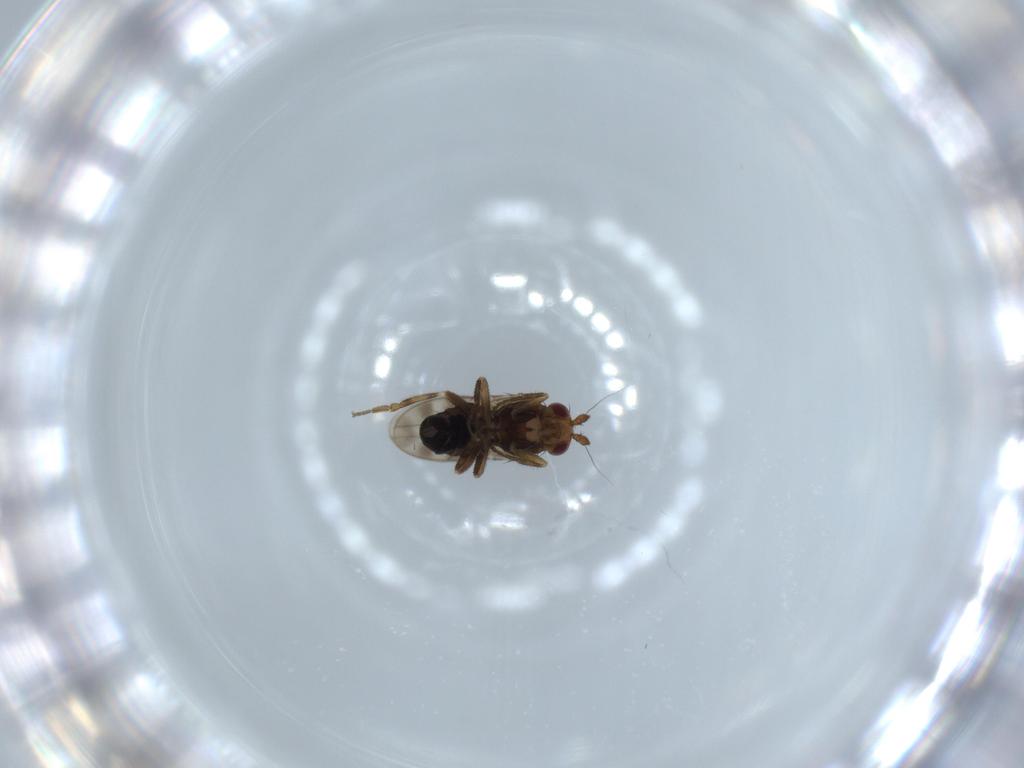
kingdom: Animalia
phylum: Arthropoda
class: Insecta
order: Diptera
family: Sphaeroceridae
